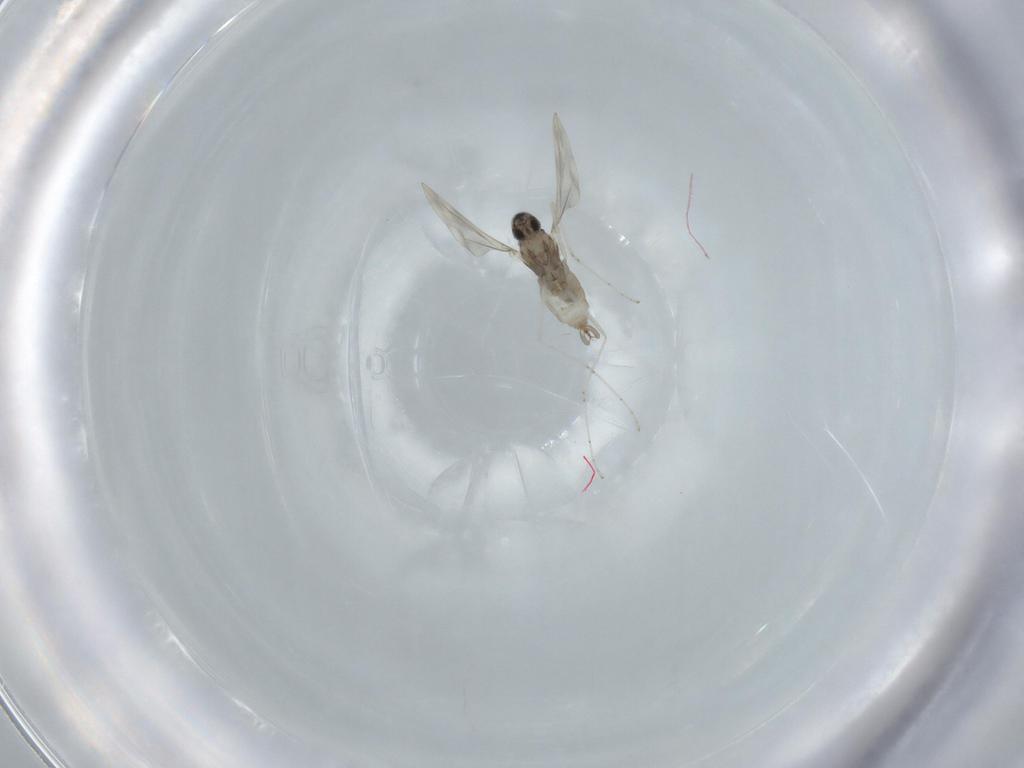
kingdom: Animalia
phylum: Arthropoda
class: Insecta
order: Diptera
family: Cecidomyiidae
